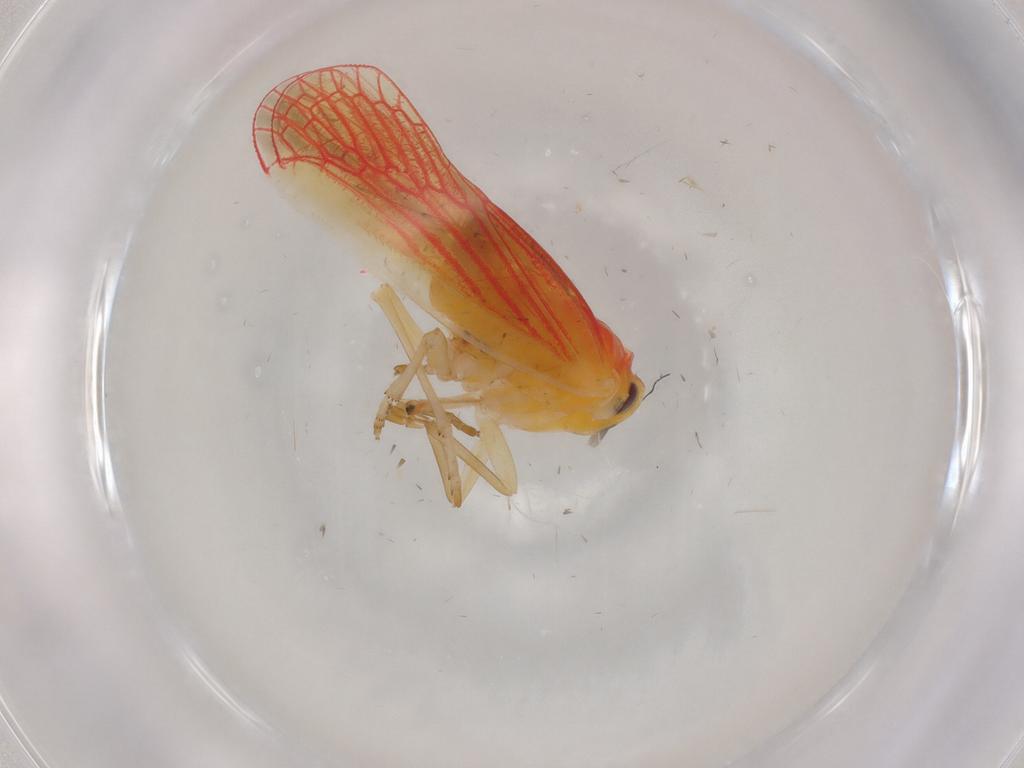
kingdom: Animalia
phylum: Arthropoda
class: Insecta
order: Hemiptera
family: Derbidae
